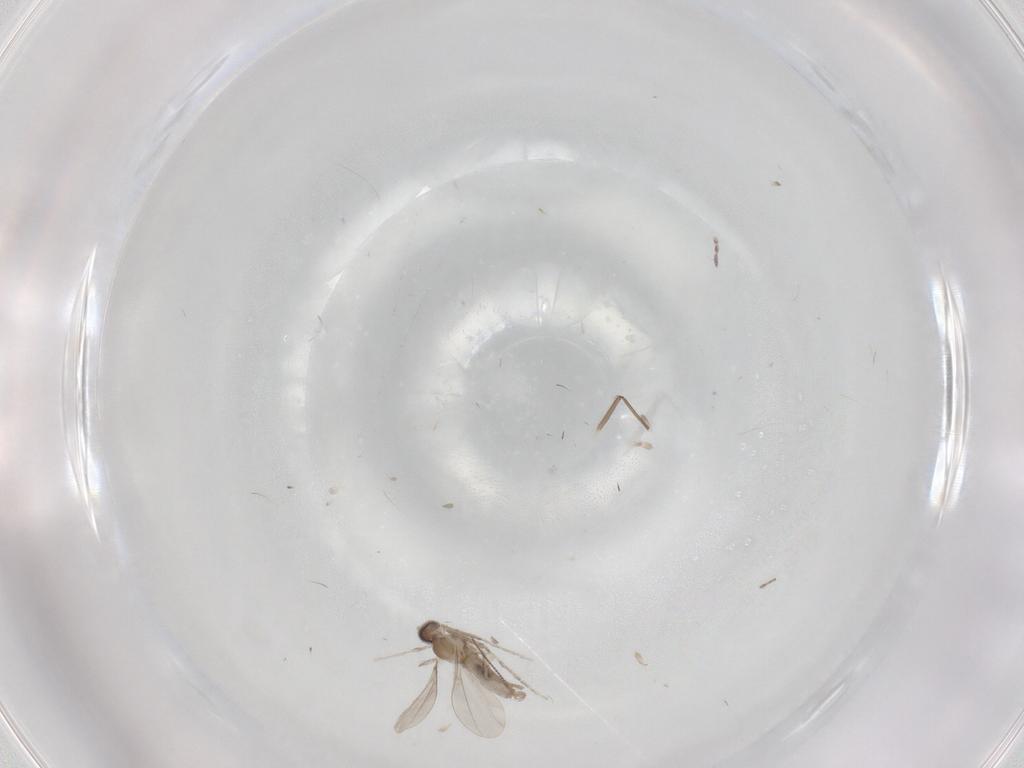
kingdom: Animalia
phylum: Arthropoda
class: Insecta
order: Diptera
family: Cecidomyiidae
